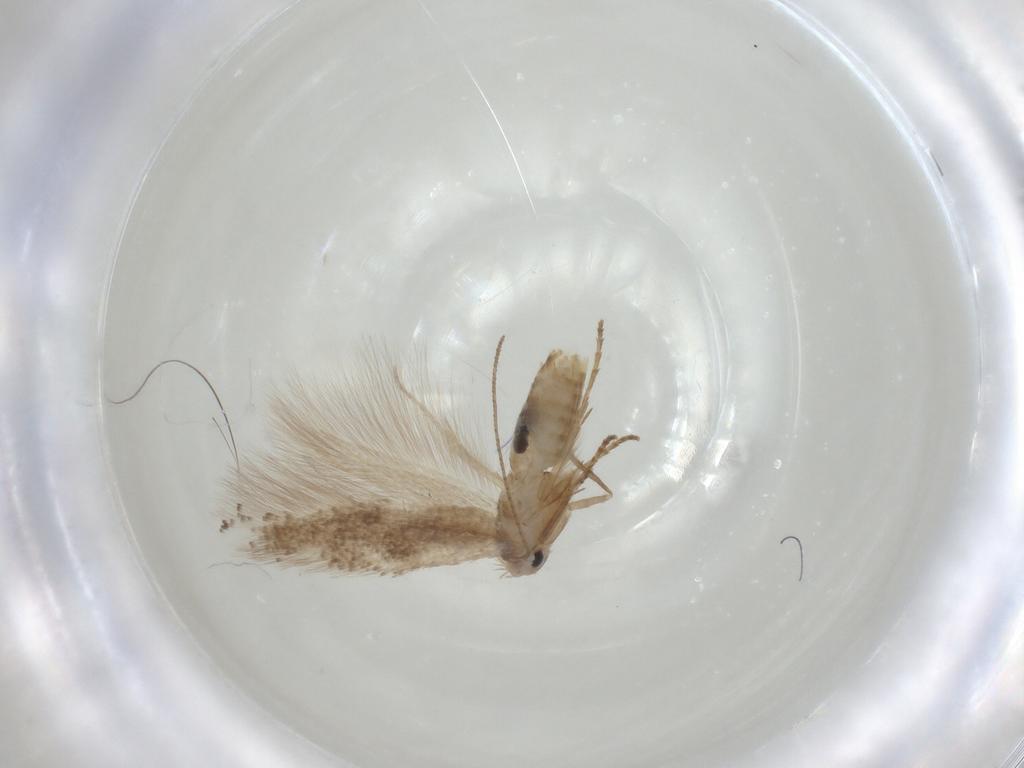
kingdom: Animalia
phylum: Arthropoda
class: Insecta
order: Lepidoptera
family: Bucculatricidae
